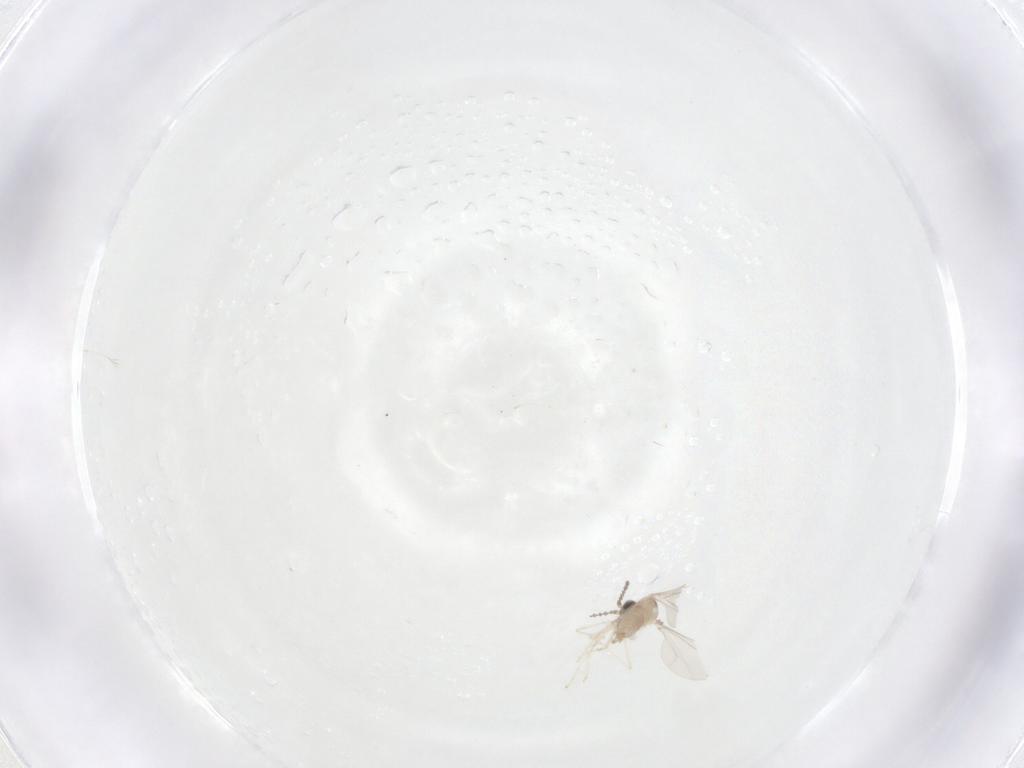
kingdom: Animalia
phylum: Arthropoda
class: Insecta
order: Diptera
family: Cecidomyiidae
